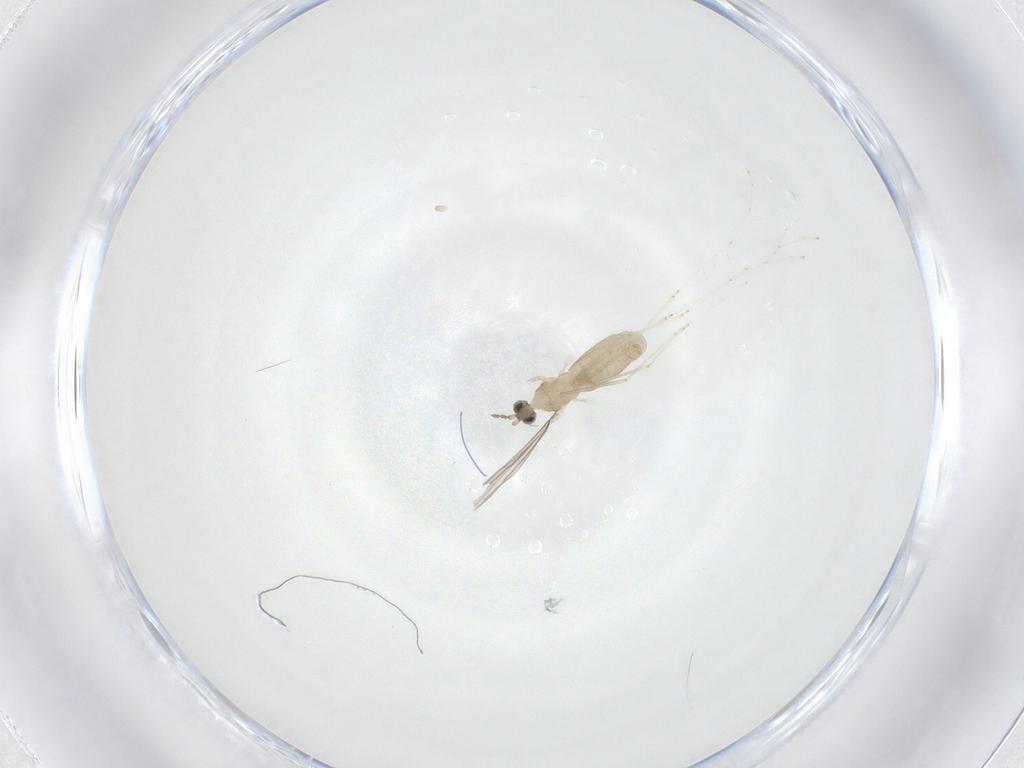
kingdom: Animalia
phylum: Arthropoda
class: Insecta
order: Diptera
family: Cecidomyiidae
